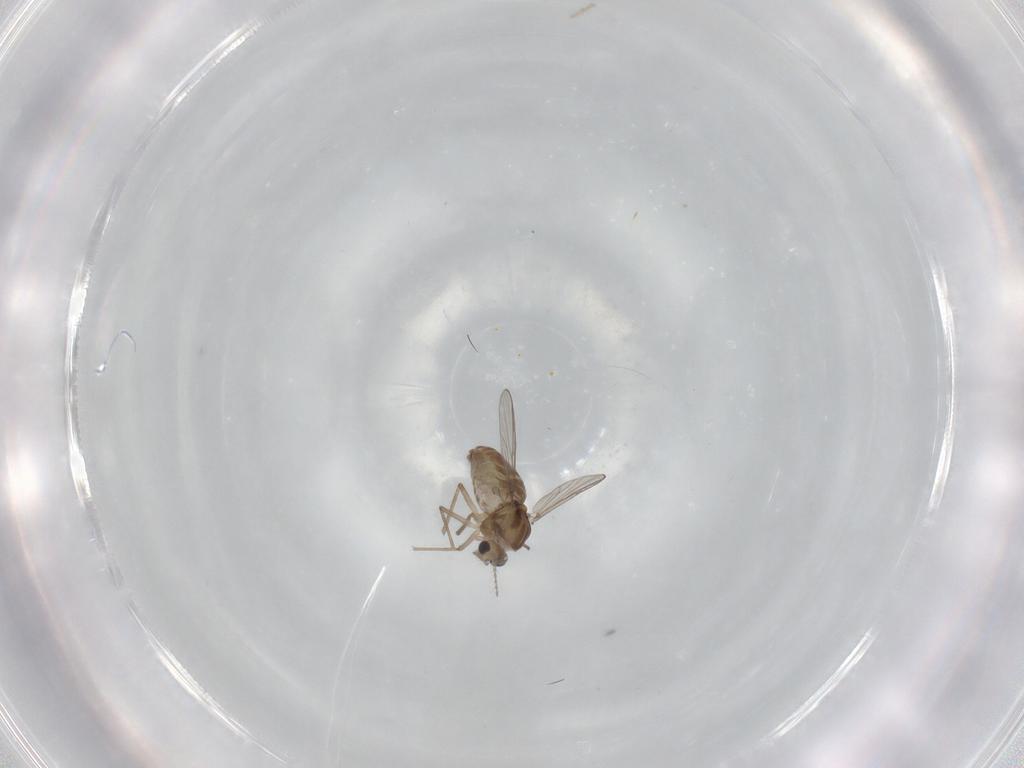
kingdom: Animalia
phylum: Arthropoda
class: Insecta
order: Diptera
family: Chironomidae
